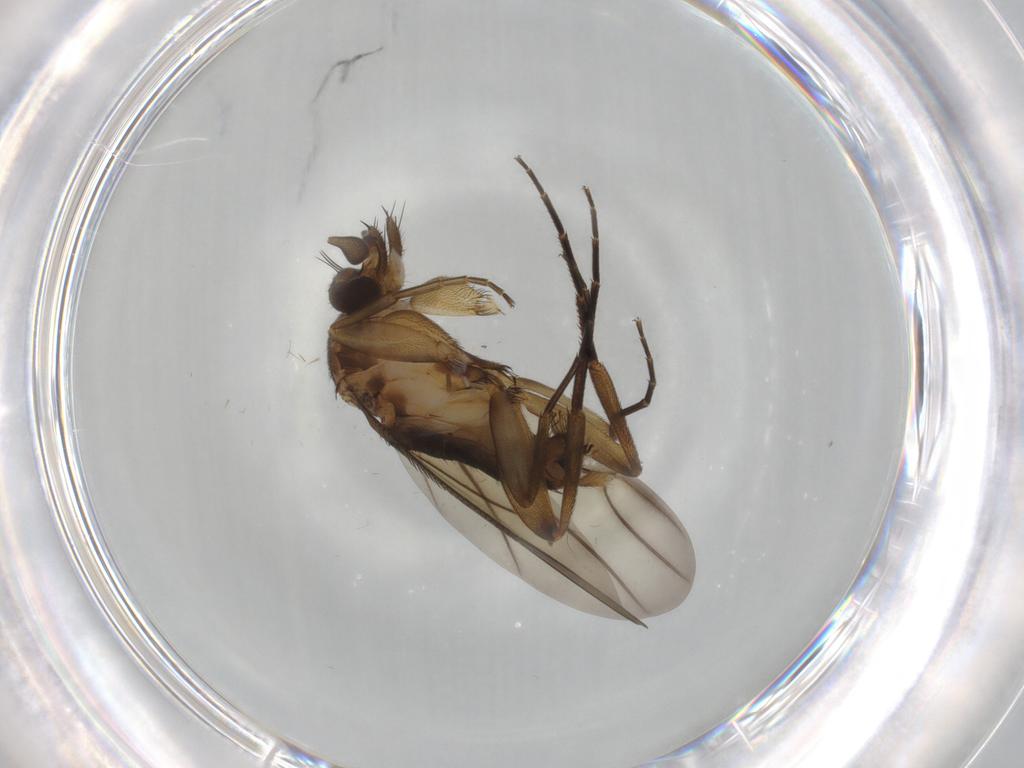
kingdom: Animalia
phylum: Arthropoda
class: Insecta
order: Diptera
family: Phoridae
